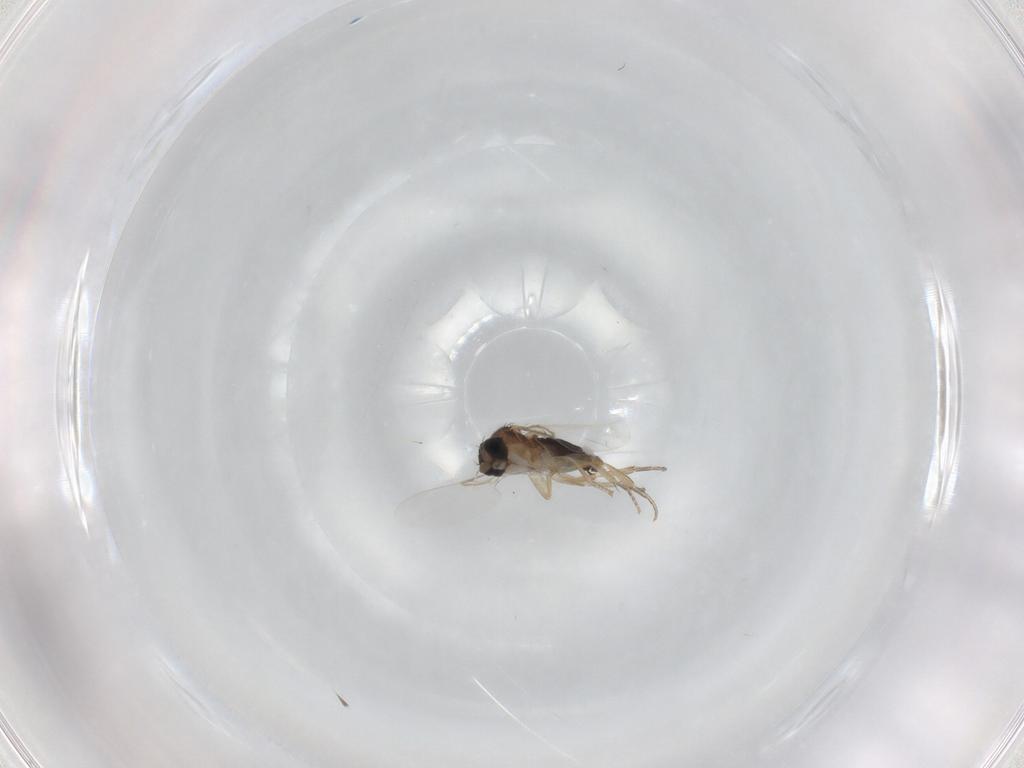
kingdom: Animalia
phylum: Arthropoda
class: Insecta
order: Diptera
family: Phoridae
